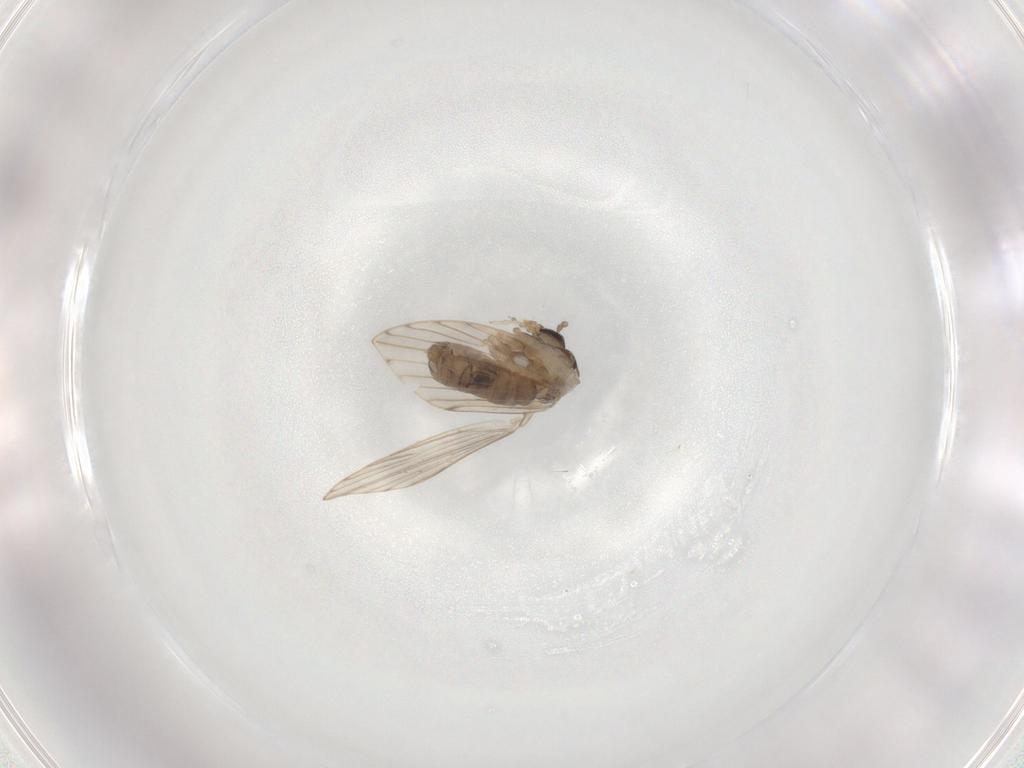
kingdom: Animalia
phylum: Arthropoda
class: Insecta
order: Diptera
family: Psychodidae
